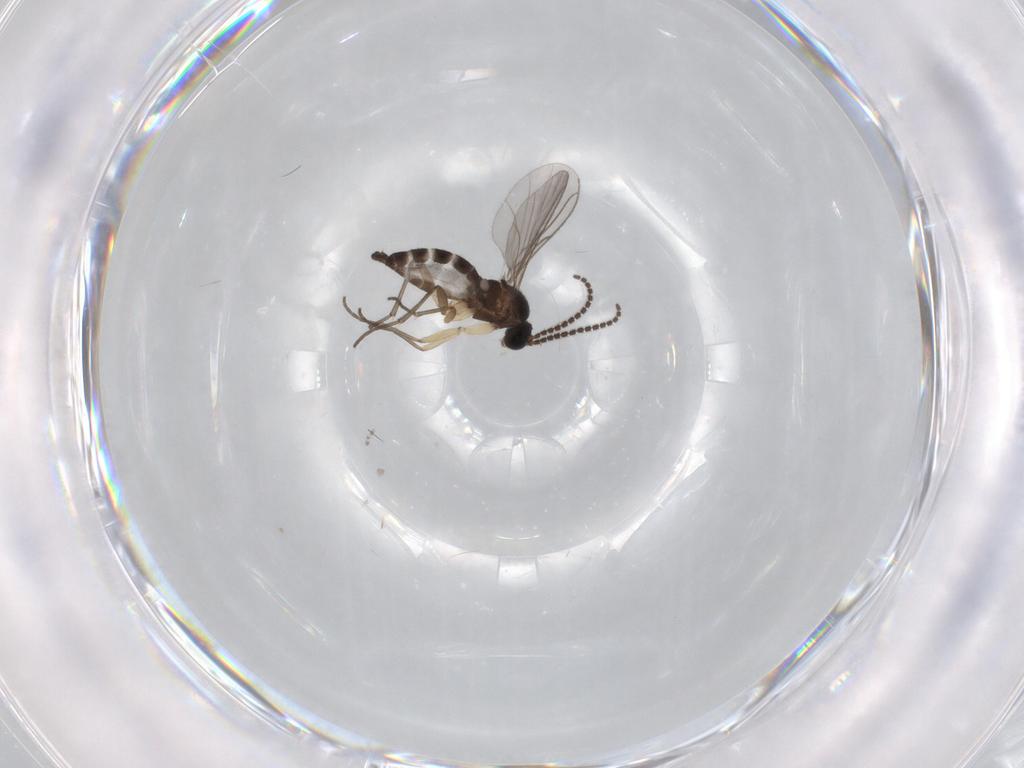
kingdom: Animalia
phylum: Arthropoda
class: Insecta
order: Diptera
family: Sciaridae
